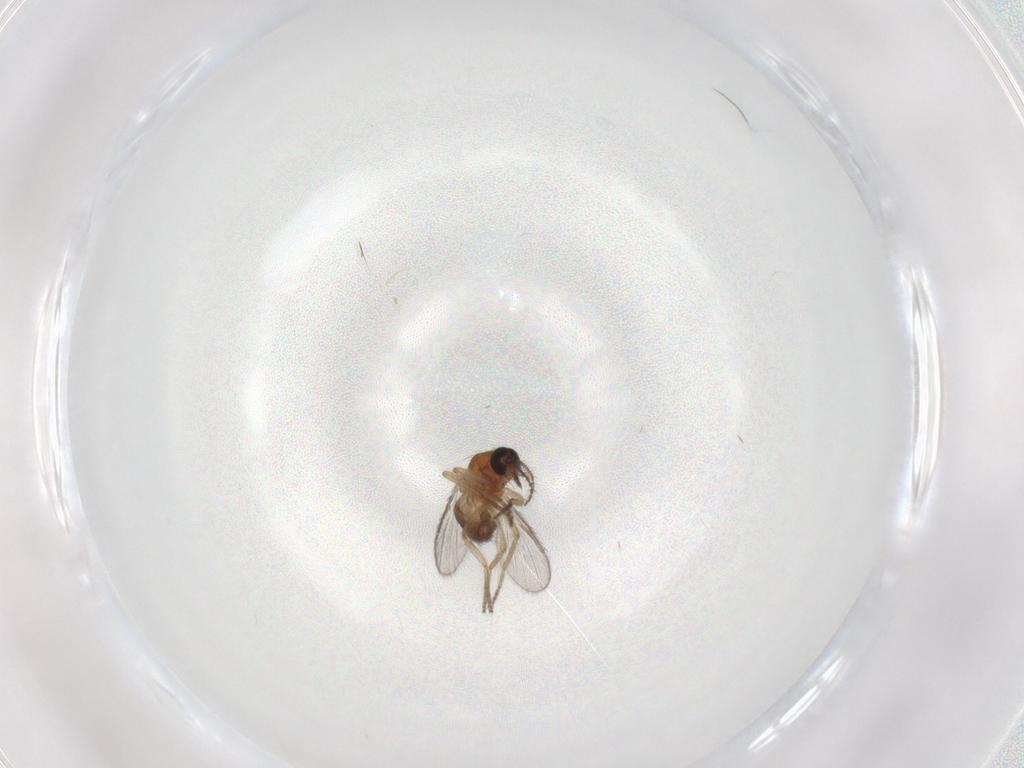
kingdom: Animalia
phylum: Arthropoda
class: Insecta
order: Diptera
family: Ceratopogonidae
